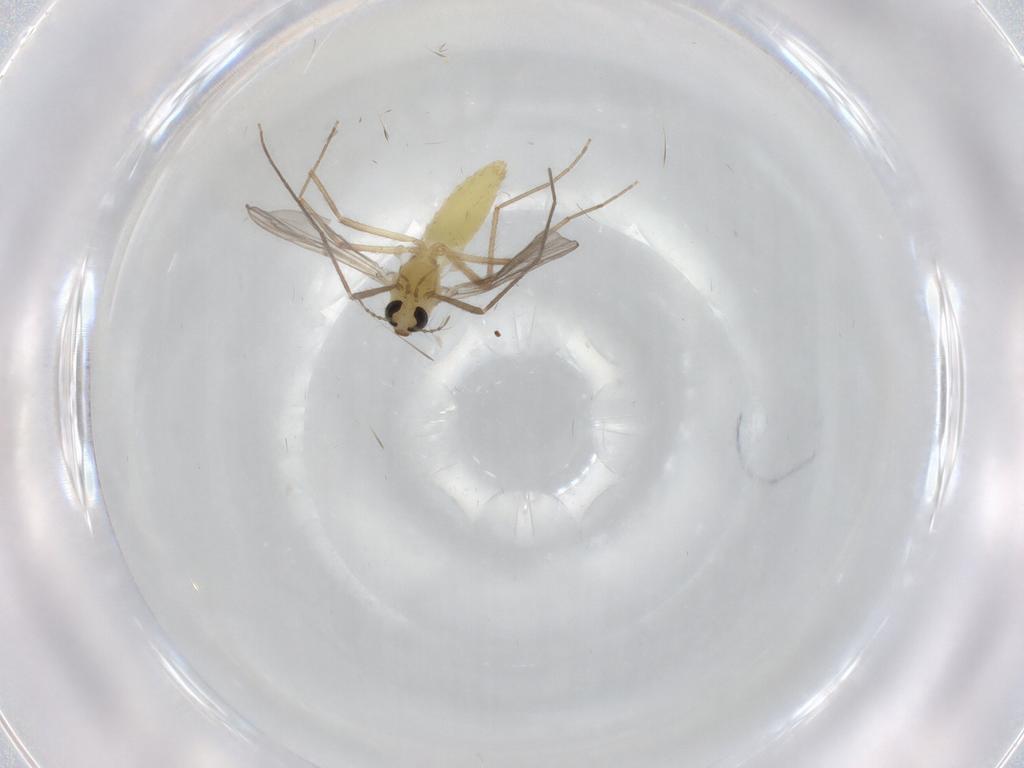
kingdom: Animalia
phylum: Arthropoda
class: Insecta
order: Diptera
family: Chironomidae
